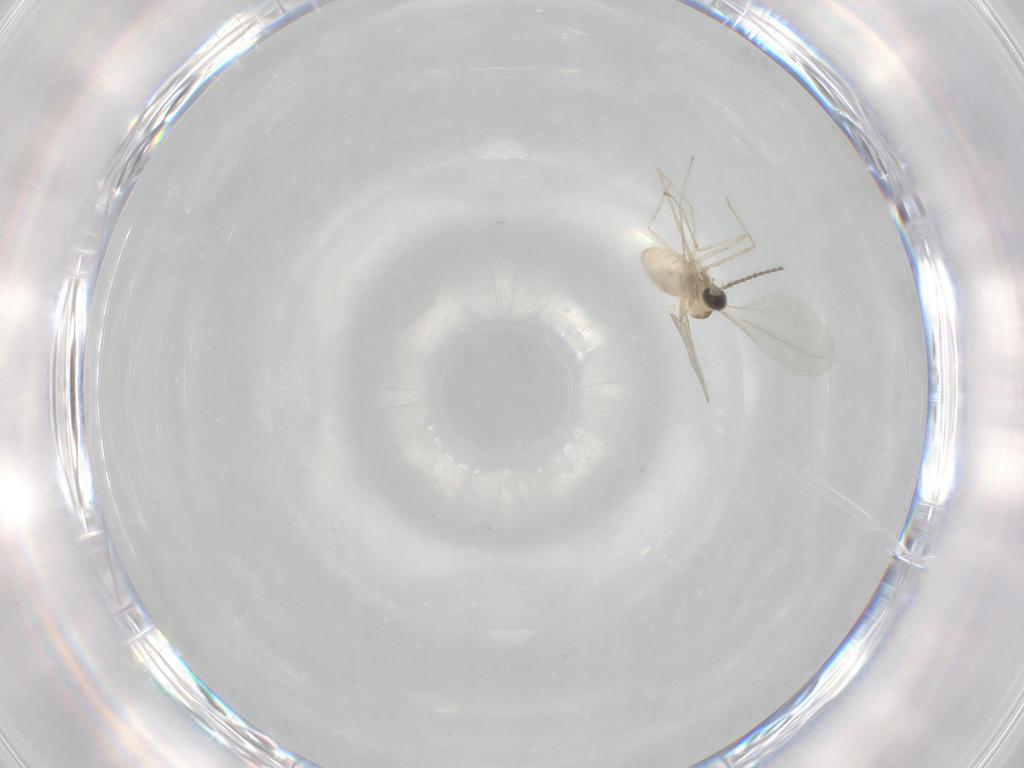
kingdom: Animalia
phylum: Arthropoda
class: Insecta
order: Diptera
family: Cecidomyiidae
